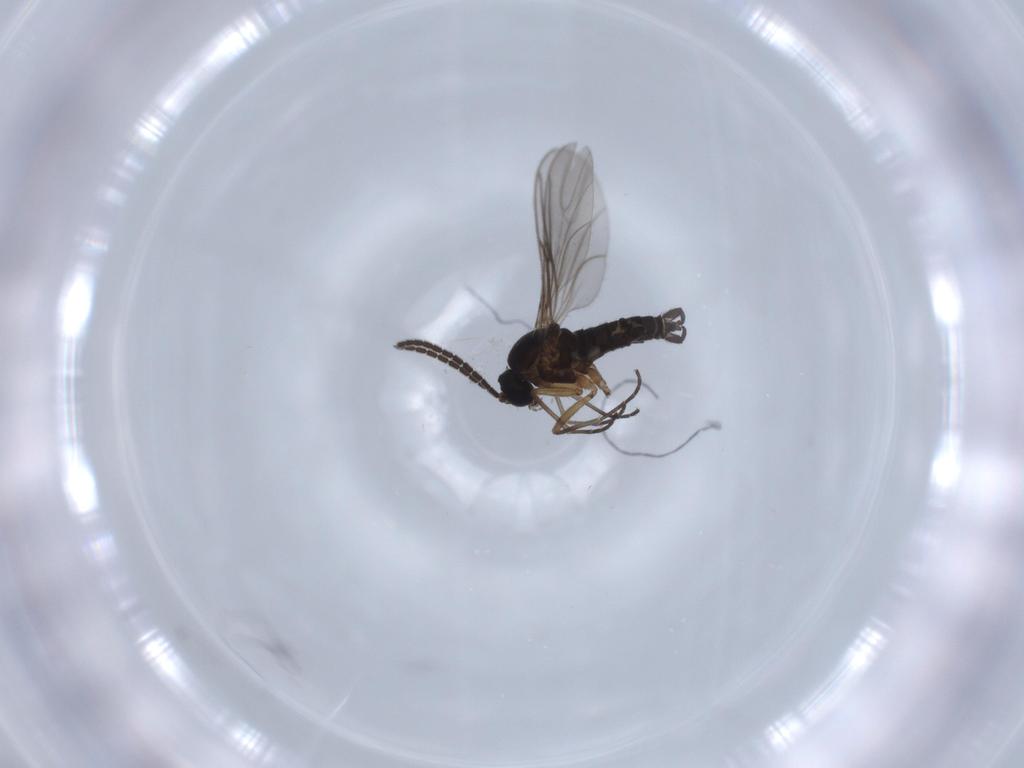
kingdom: Animalia
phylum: Arthropoda
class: Insecta
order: Diptera
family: Sciaridae
